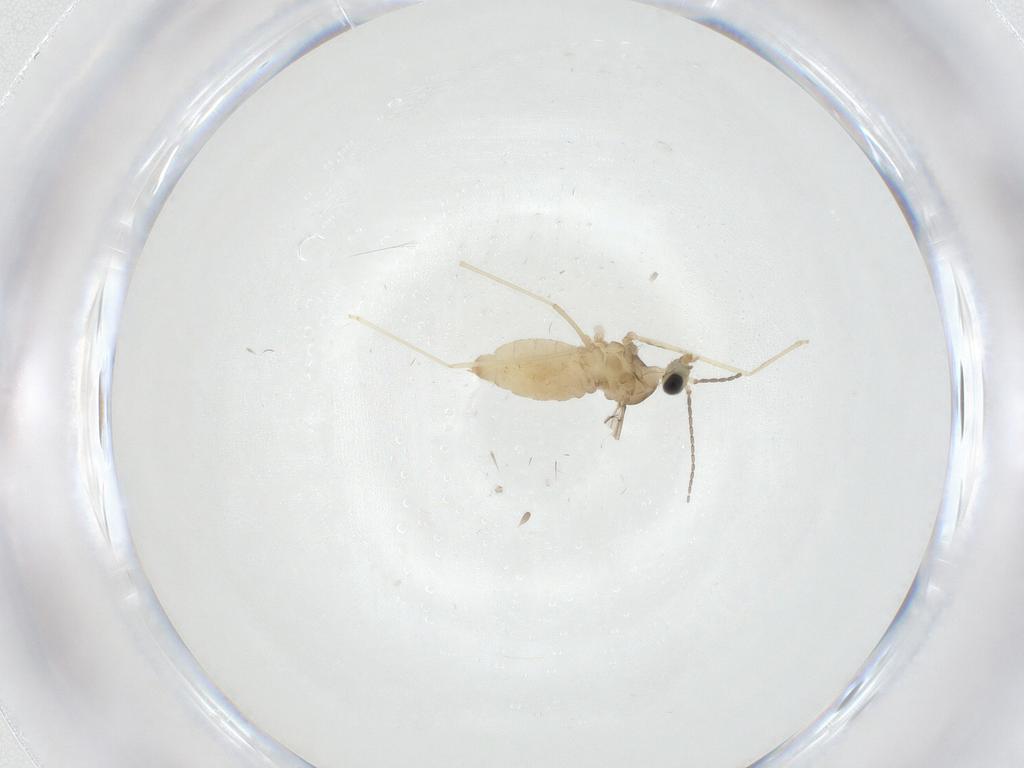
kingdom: Animalia
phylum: Arthropoda
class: Insecta
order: Diptera
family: Cecidomyiidae
